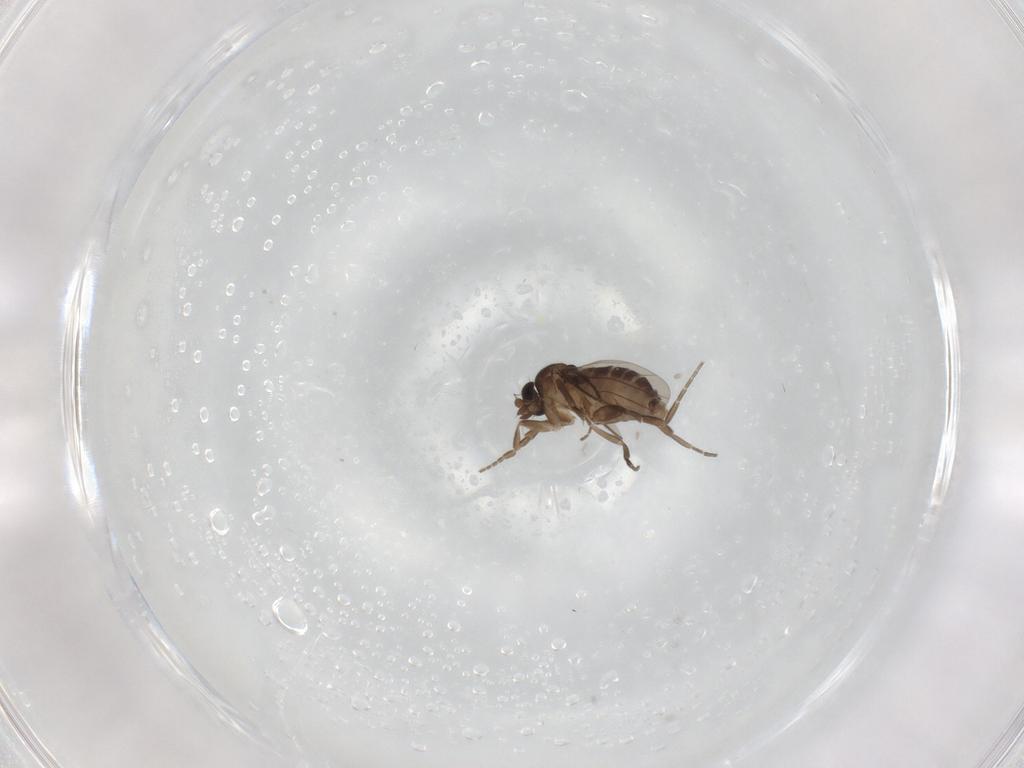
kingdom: Animalia
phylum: Arthropoda
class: Insecta
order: Diptera
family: Phoridae
